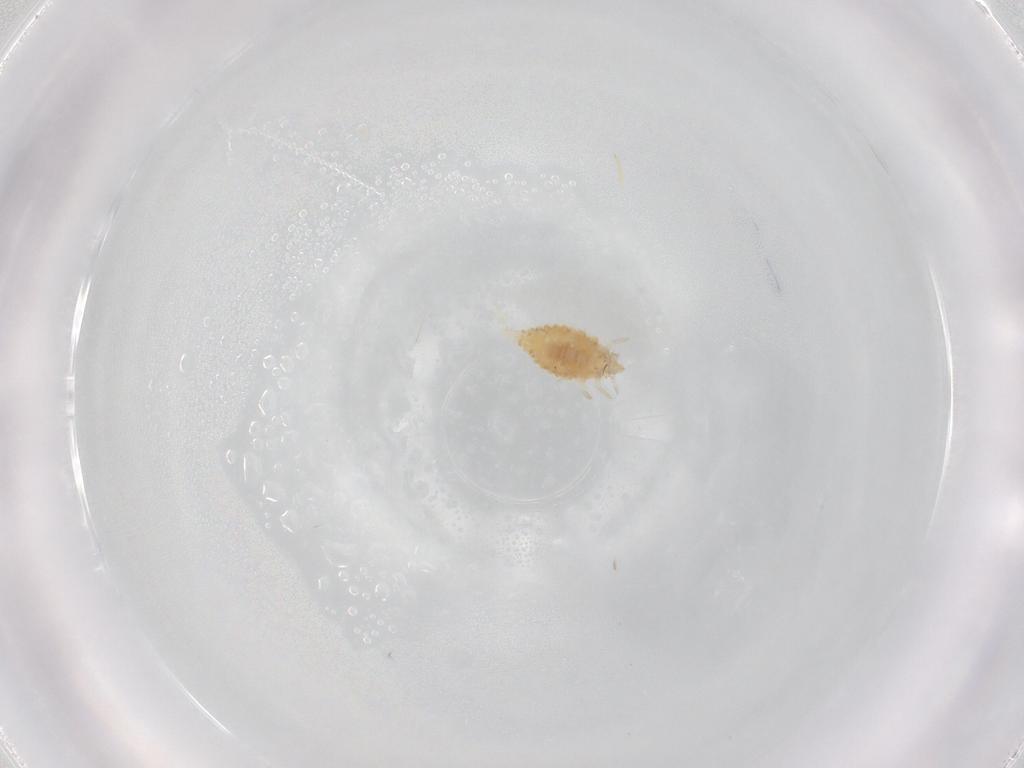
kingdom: Animalia
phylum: Arthropoda
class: Insecta
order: Neuroptera
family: Coniopterygidae
